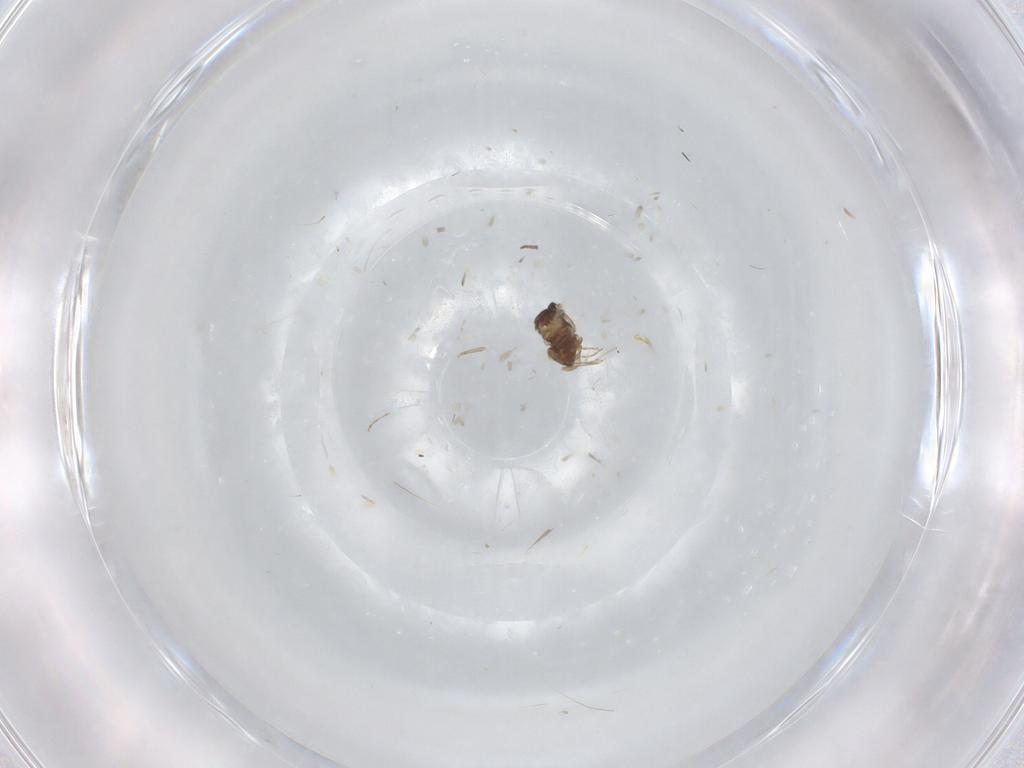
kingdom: Animalia
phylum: Arthropoda
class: Insecta
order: Diptera
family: Cecidomyiidae
